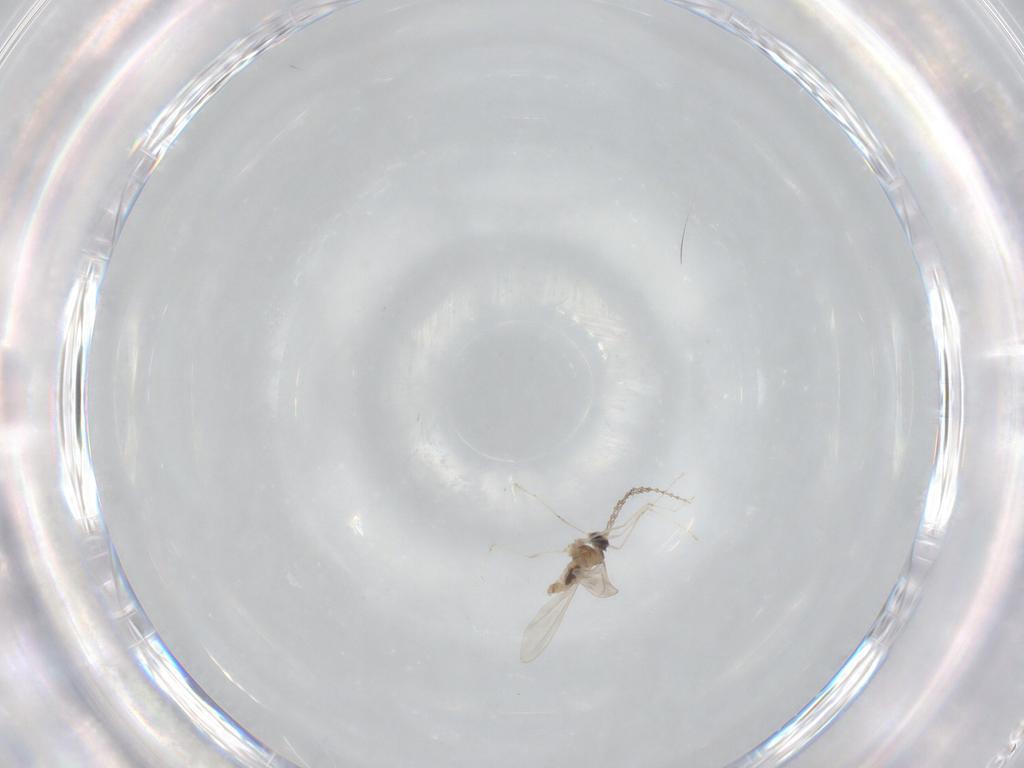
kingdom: Animalia
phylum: Arthropoda
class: Insecta
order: Diptera
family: Cecidomyiidae
